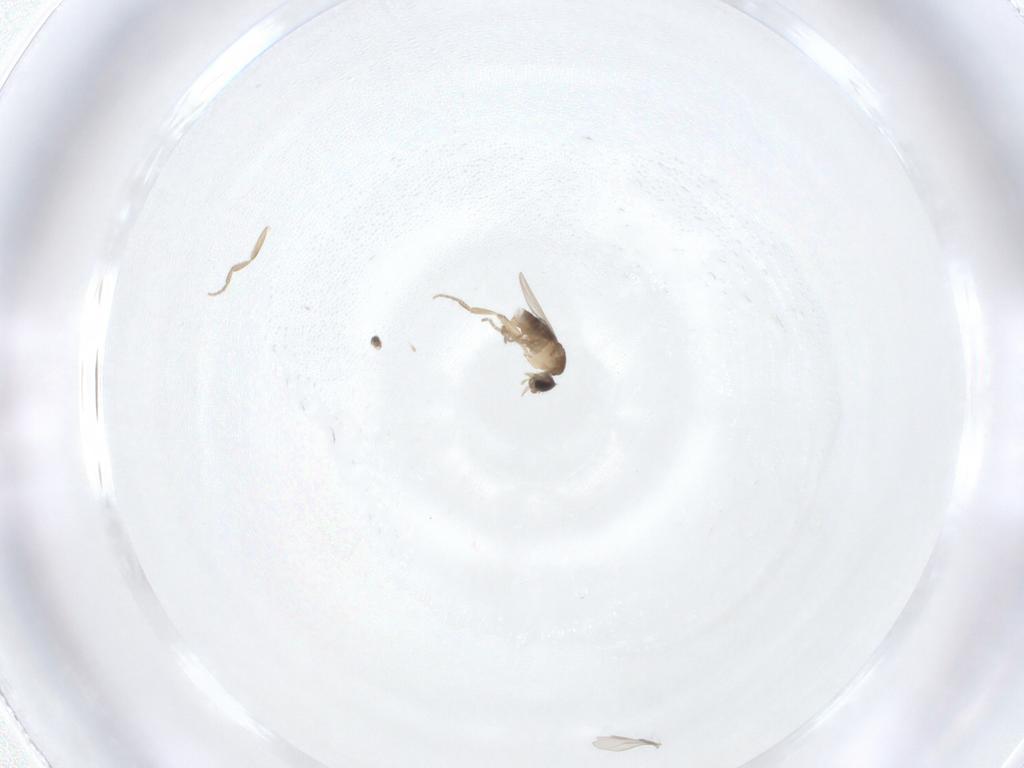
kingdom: Animalia
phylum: Arthropoda
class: Insecta
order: Diptera
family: Phoridae
